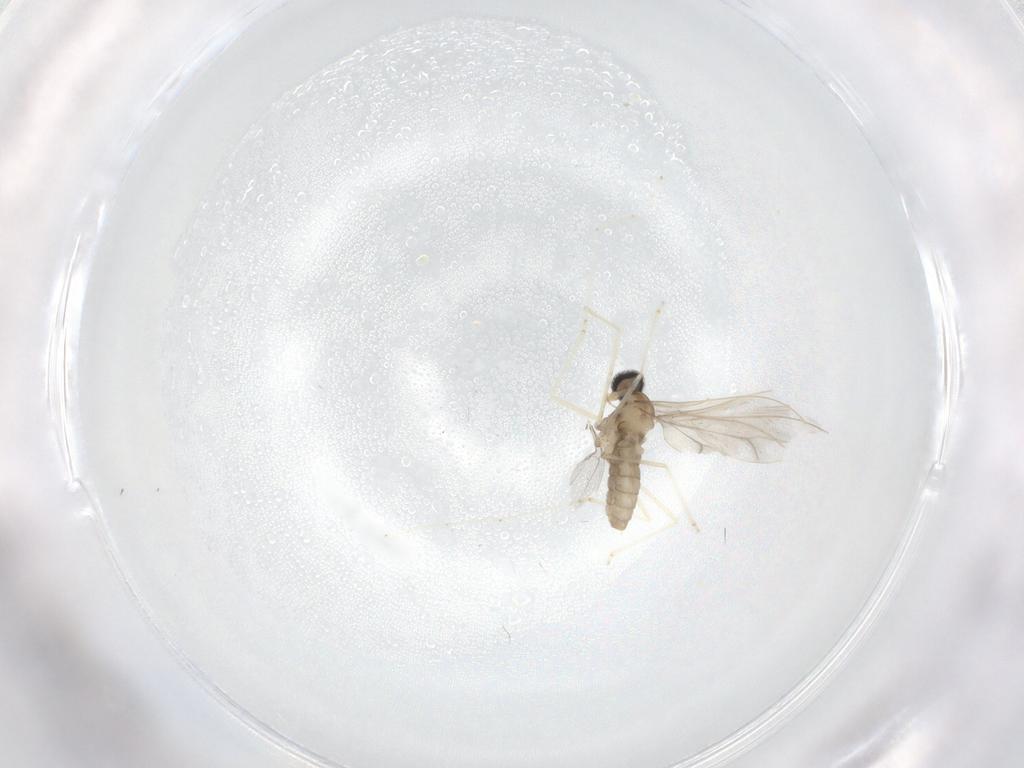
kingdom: Animalia
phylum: Arthropoda
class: Insecta
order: Diptera
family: Cecidomyiidae
